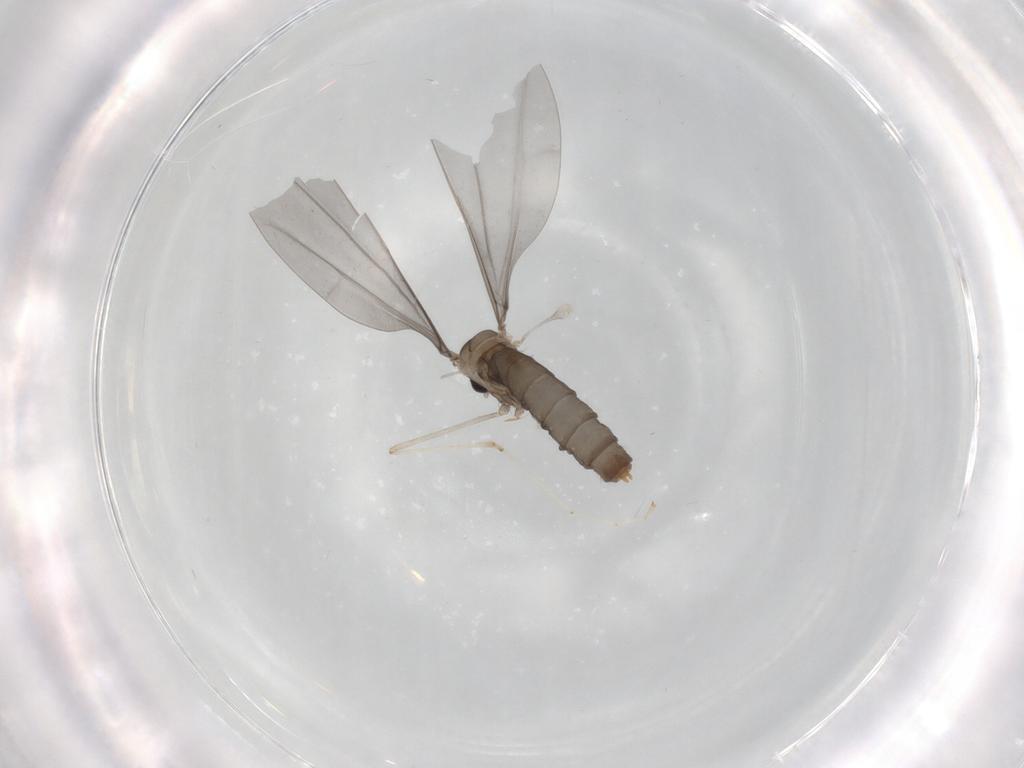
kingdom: Animalia
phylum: Arthropoda
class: Insecta
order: Diptera
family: Cecidomyiidae
